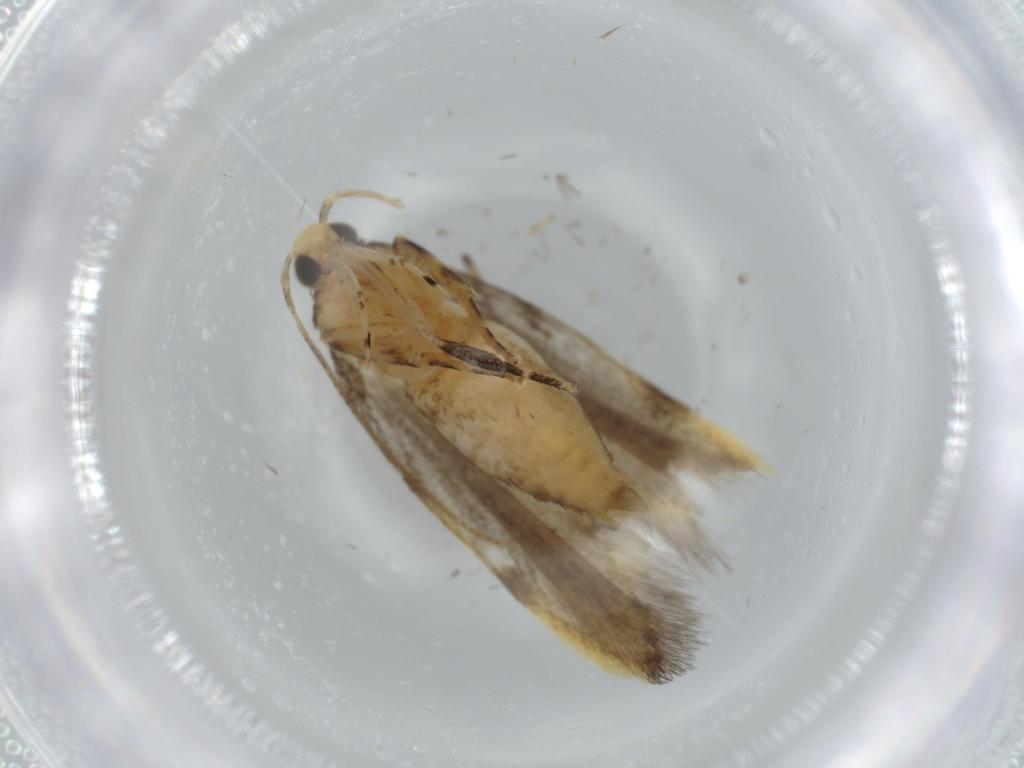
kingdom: Animalia
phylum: Arthropoda
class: Insecta
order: Lepidoptera
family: Autostichidae
